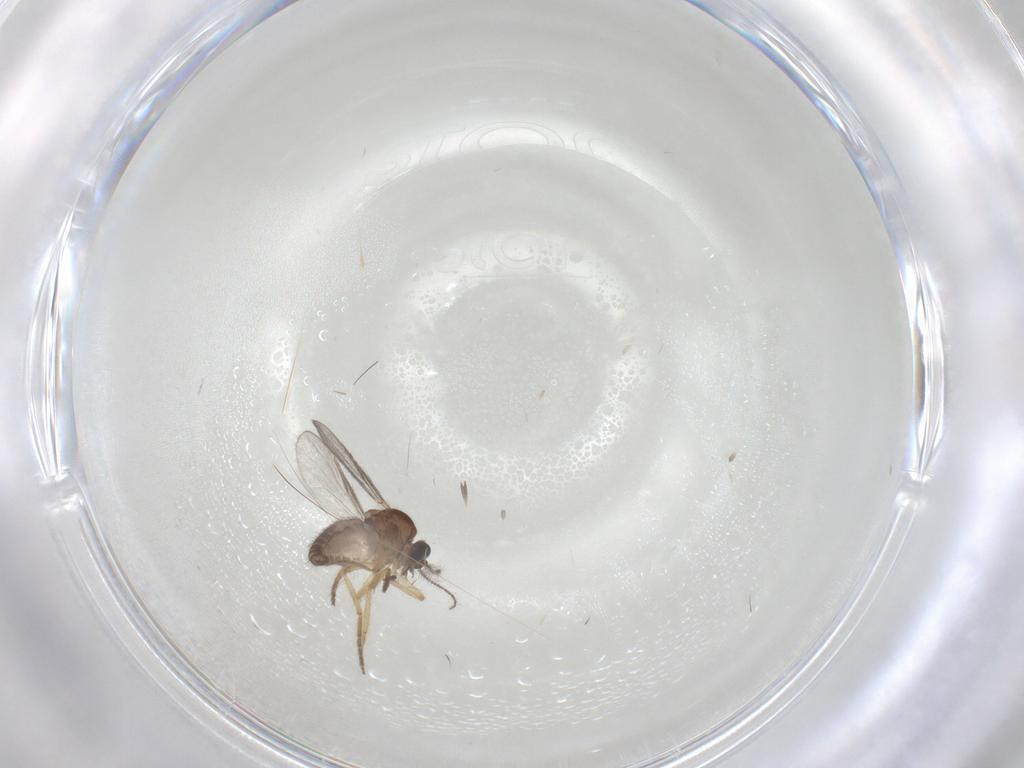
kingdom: Animalia
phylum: Arthropoda
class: Insecta
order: Diptera
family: Ceratopogonidae
